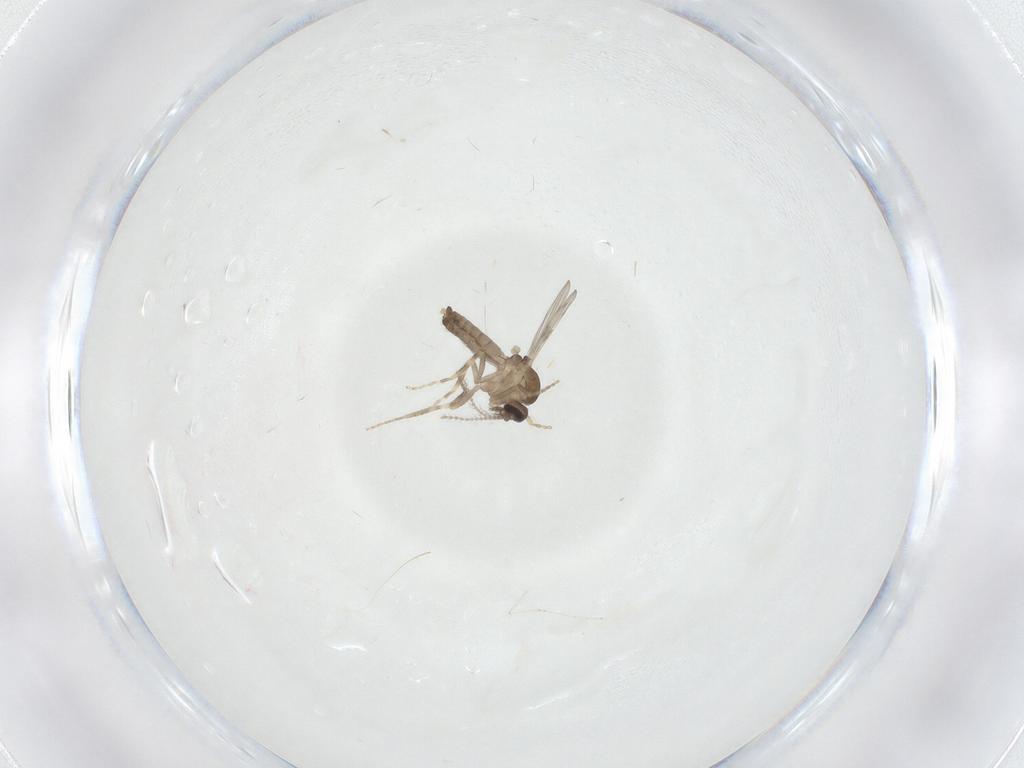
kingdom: Animalia
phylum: Arthropoda
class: Insecta
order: Diptera
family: Ceratopogonidae
